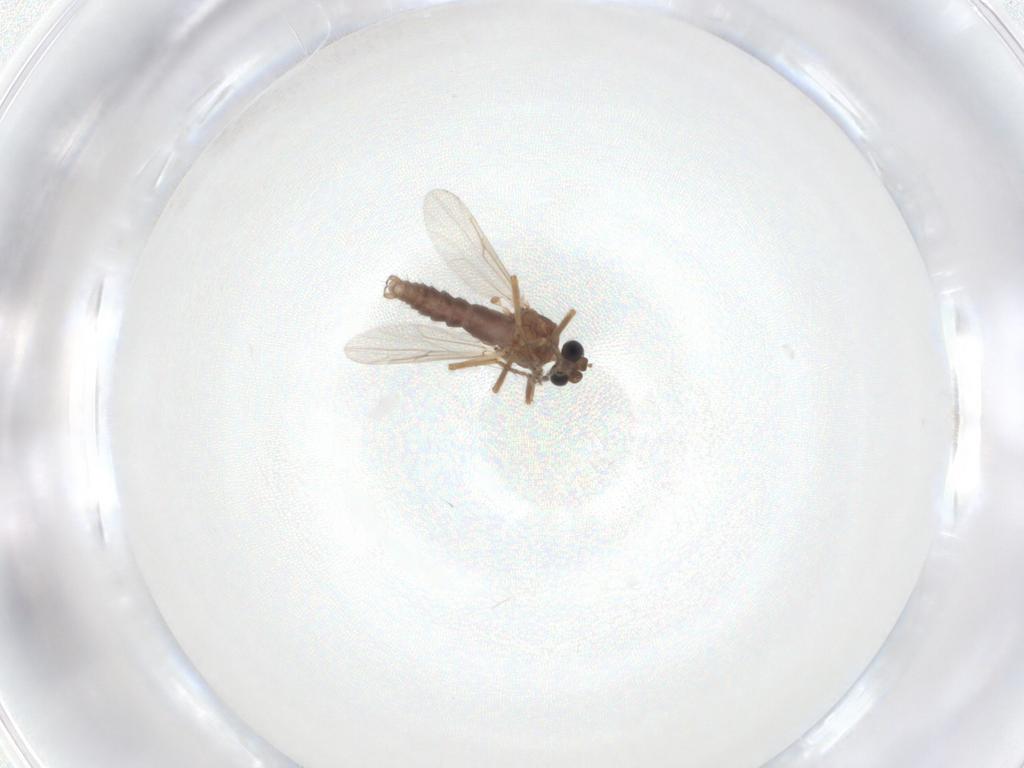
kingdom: Animalia
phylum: Arthropoda
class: Insecta
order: Diptera
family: Ceratopogonidae
